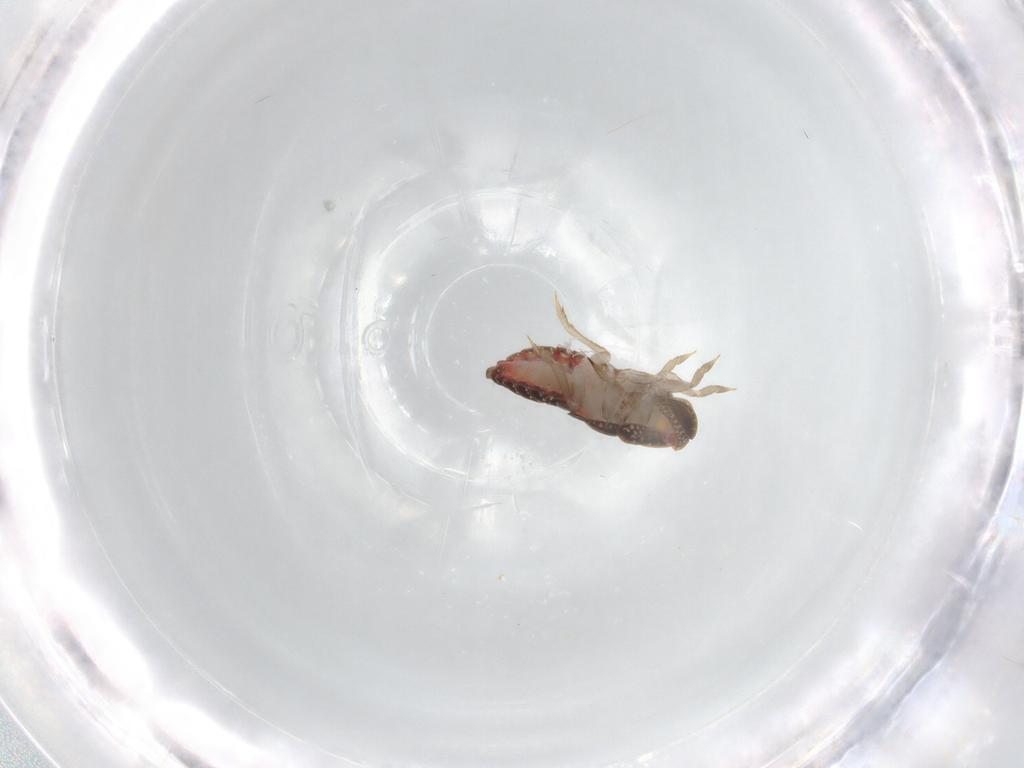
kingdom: Animalia
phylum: Arthropoda
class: Insecta
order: Hemiptera
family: Derbidae
